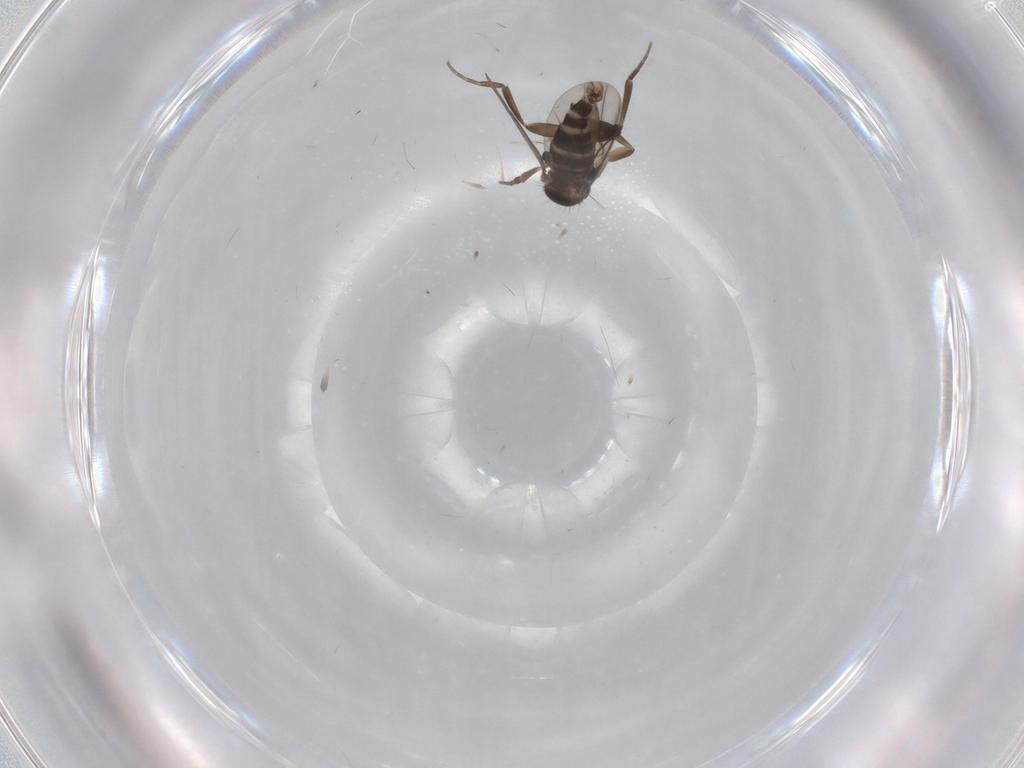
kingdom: Animalia
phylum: Arthropoda
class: Insecta
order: Diptera
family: Phoridae
